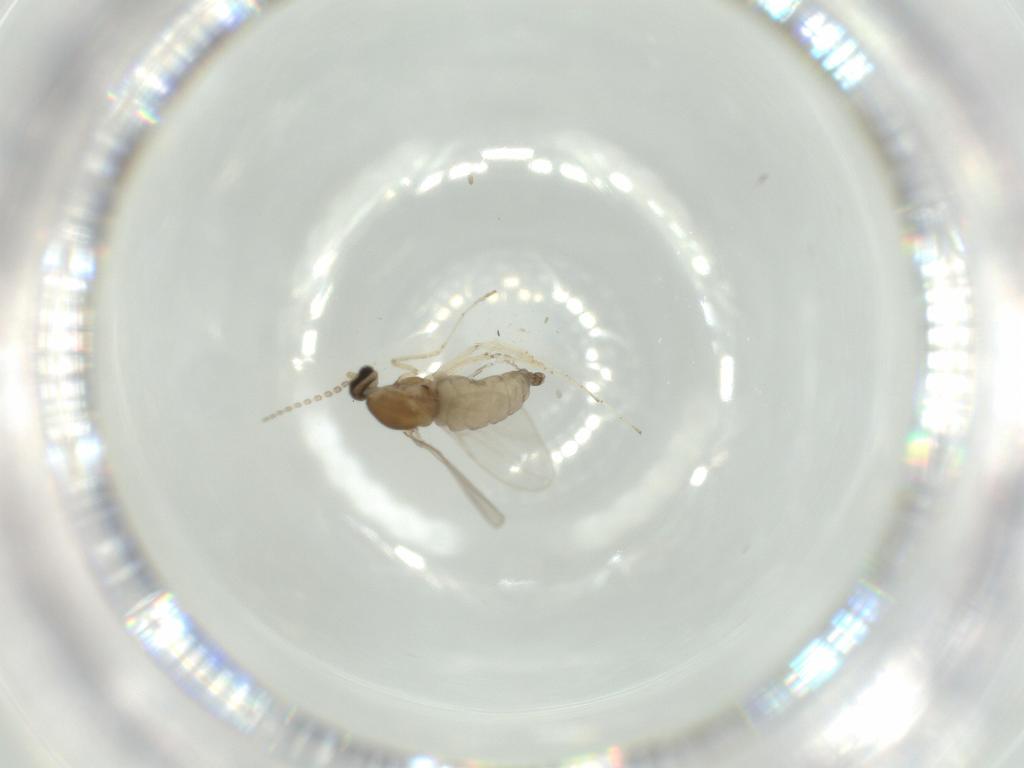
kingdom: Animalia
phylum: Arthropoda
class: Insecta
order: Diptera
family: Cecidomyiidae
